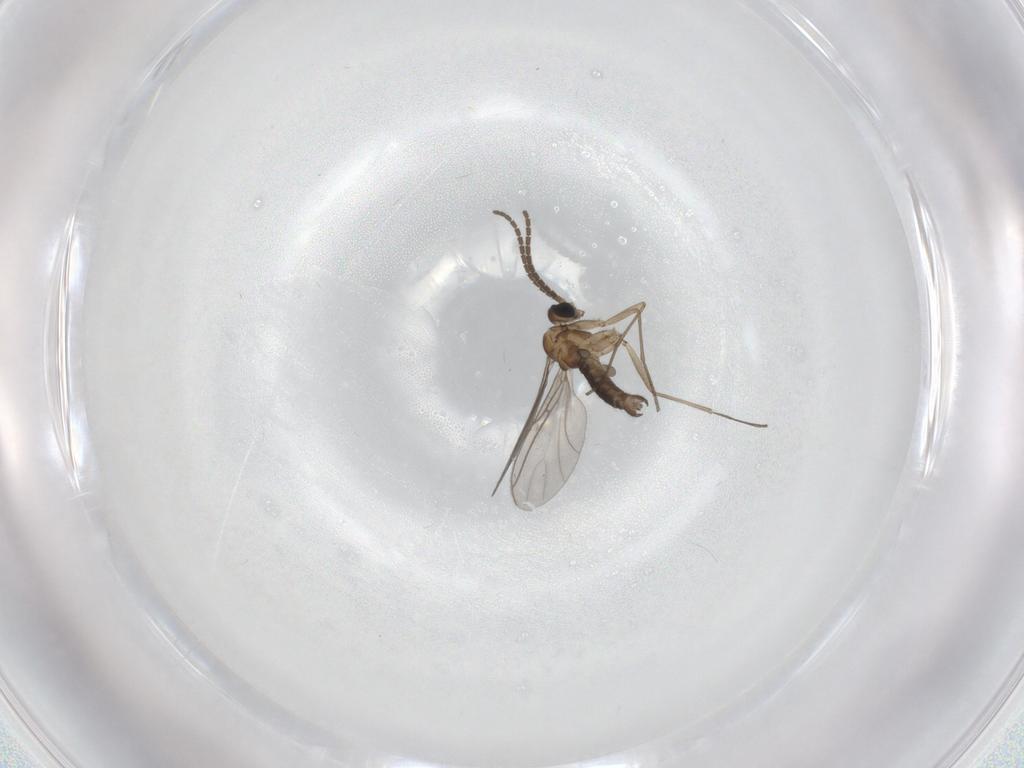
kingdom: Animalia
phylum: Arthropoda
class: Insecta
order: Diptera
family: Sciaridae
